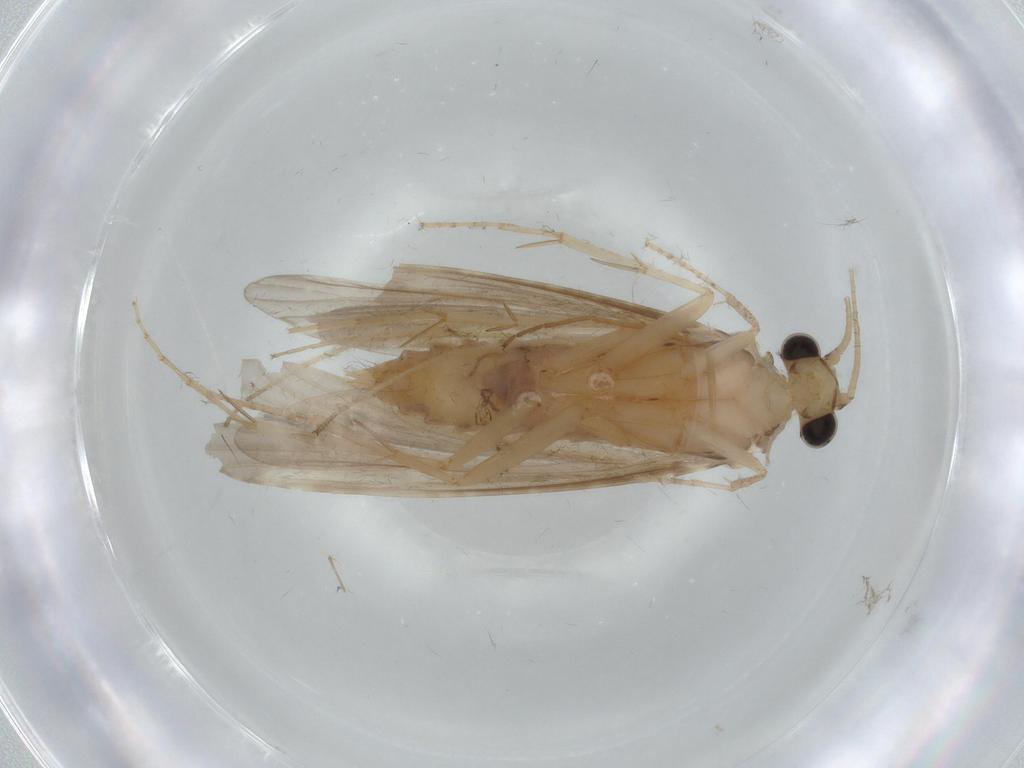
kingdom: Animalia
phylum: Arthropoda
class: Insecta
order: Trichoptera
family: Ecnomidae
